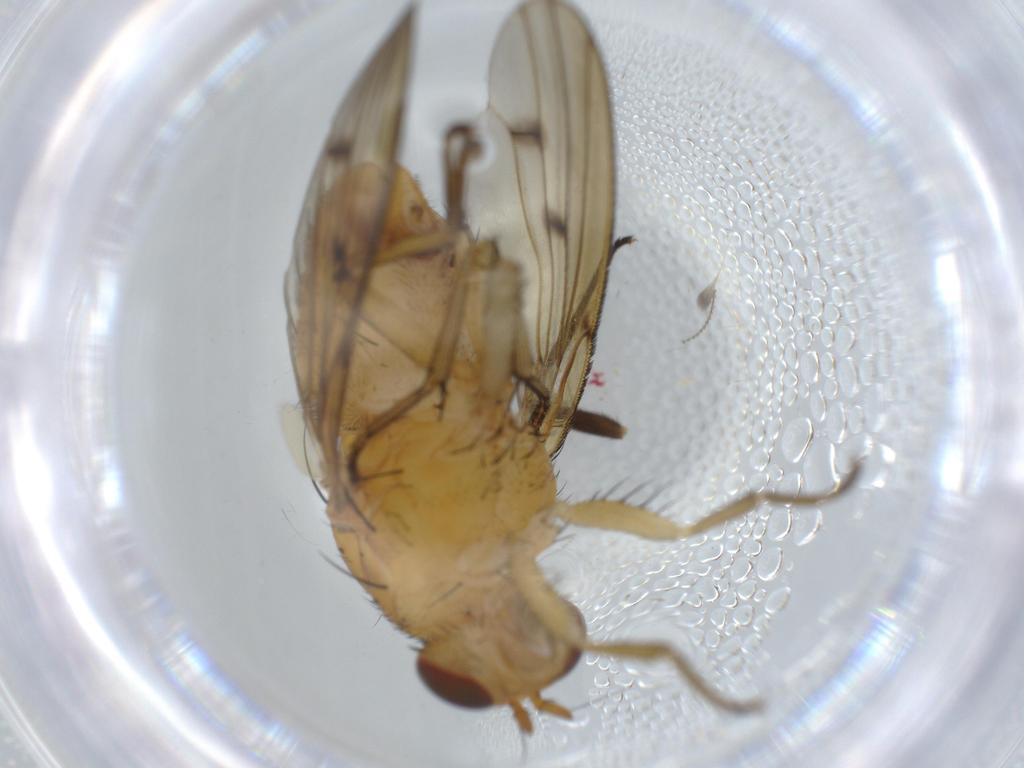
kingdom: Animalia
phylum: Arthropoda
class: Insecta
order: Diptera
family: Cecidomyiidae
